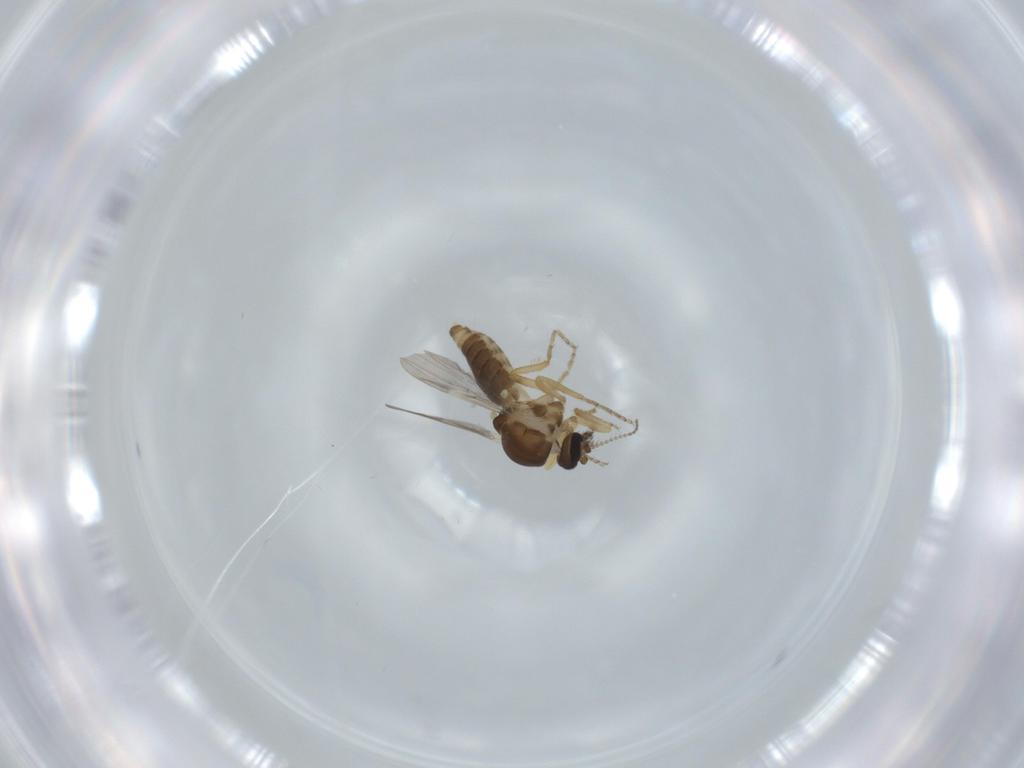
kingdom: Animalia
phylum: Arthropoda
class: Insecta
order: Diptera
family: Ceratopogonidae
